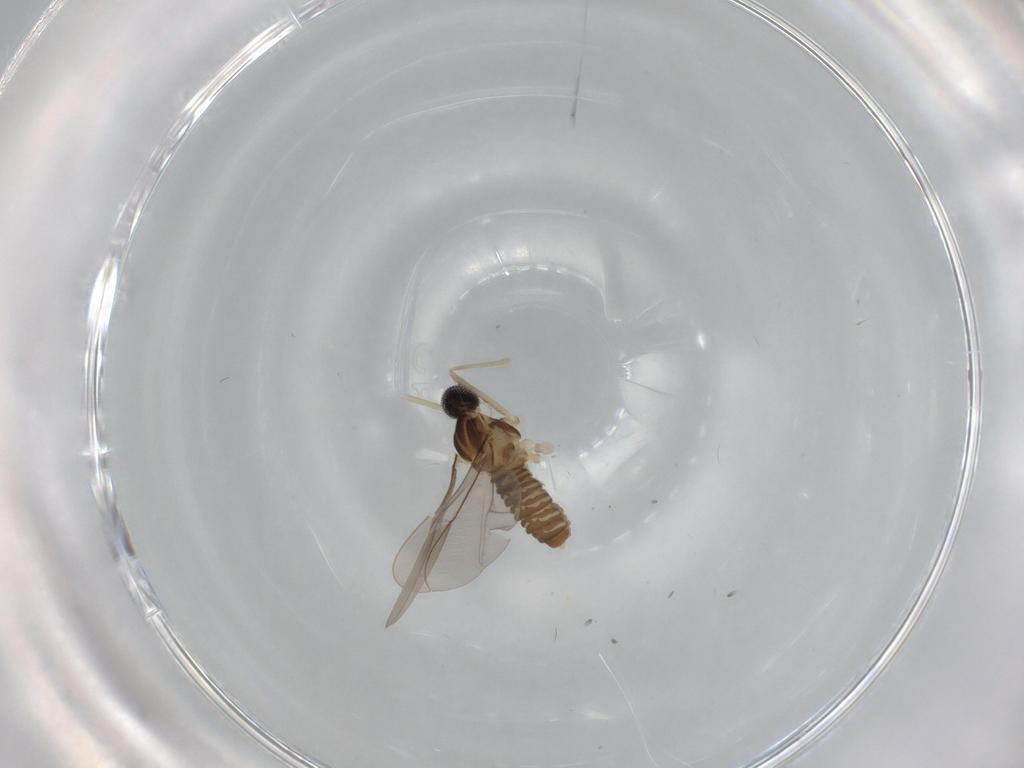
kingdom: Animalia
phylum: Arthropoda
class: Insecta
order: Diptera
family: Cecidomyiidae
